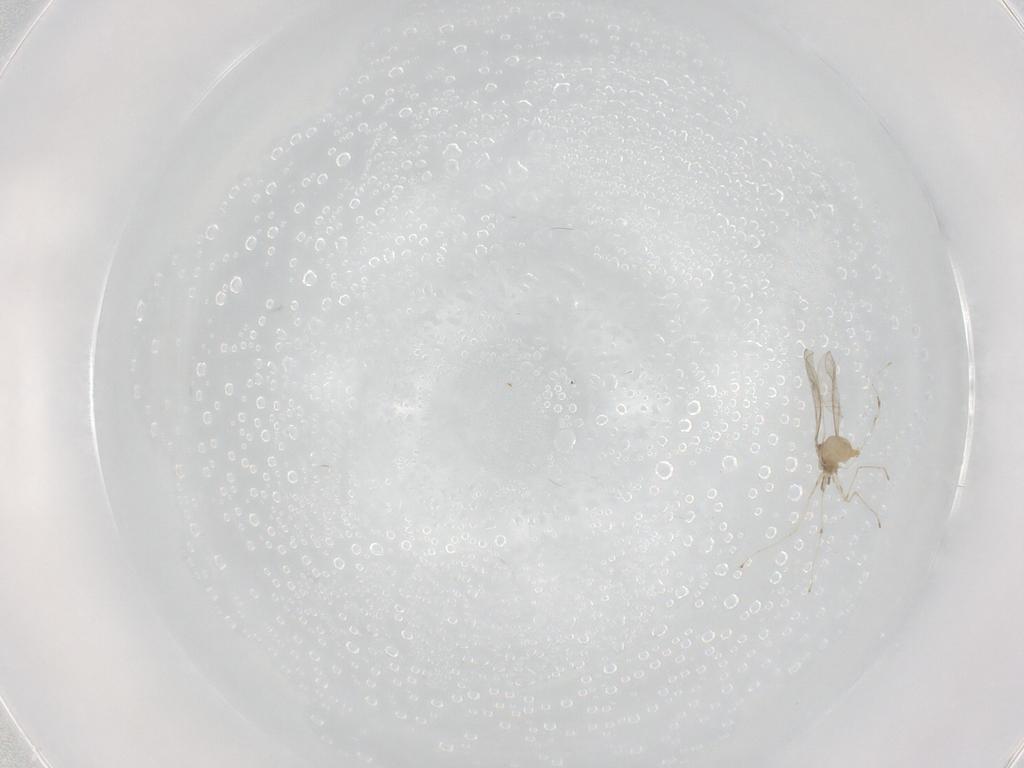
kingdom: Animalia
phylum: Arthropoda
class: Insecta
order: Diptera
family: Cecidomyiidae
